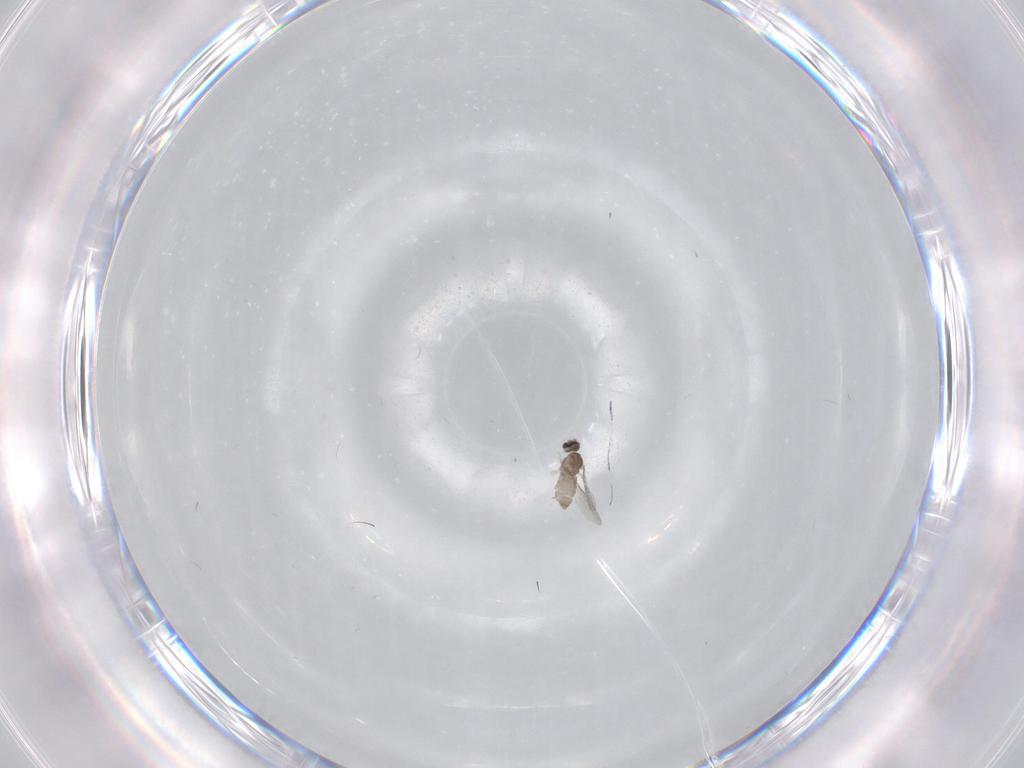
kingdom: Animalia
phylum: Arthropoda
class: Insecta
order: Diptera
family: Cecidomyiidae
